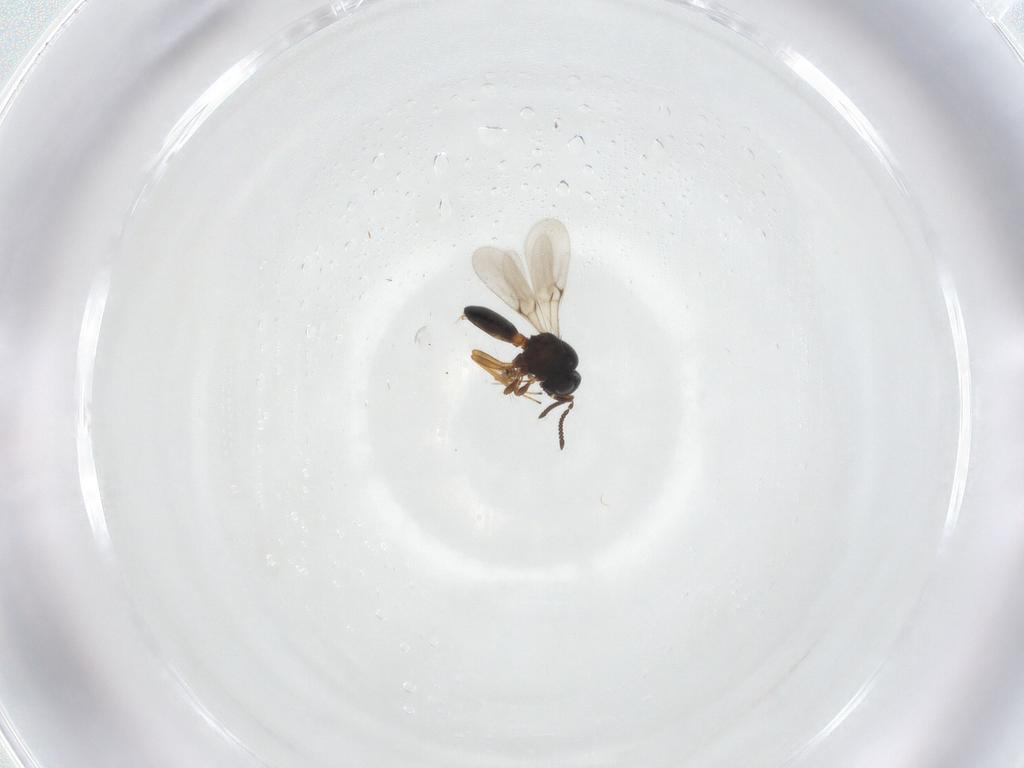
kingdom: Animalia
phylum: Arthropoda
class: Insecta
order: Hymenoptera
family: Scelionidae
